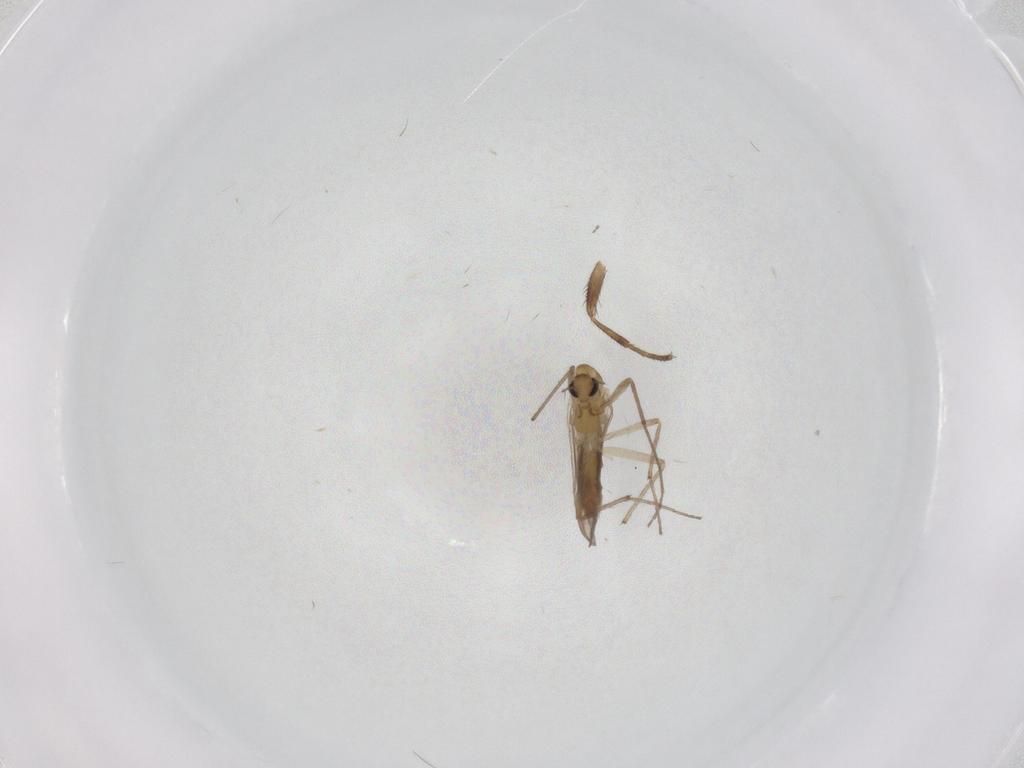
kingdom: Animalia
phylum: Arthropoda
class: Insecta
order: Diptera
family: Chironomidae
